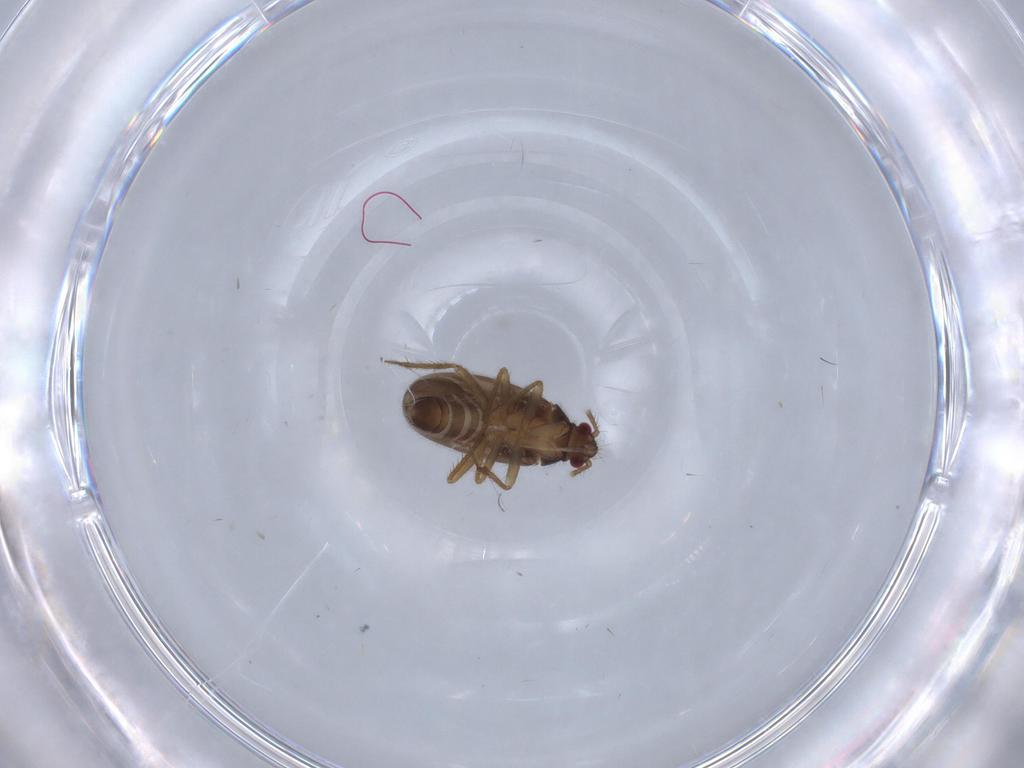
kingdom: Animalia
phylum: Arthropoda
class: Insecta
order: Hemiptera
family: Ceratocombidae
